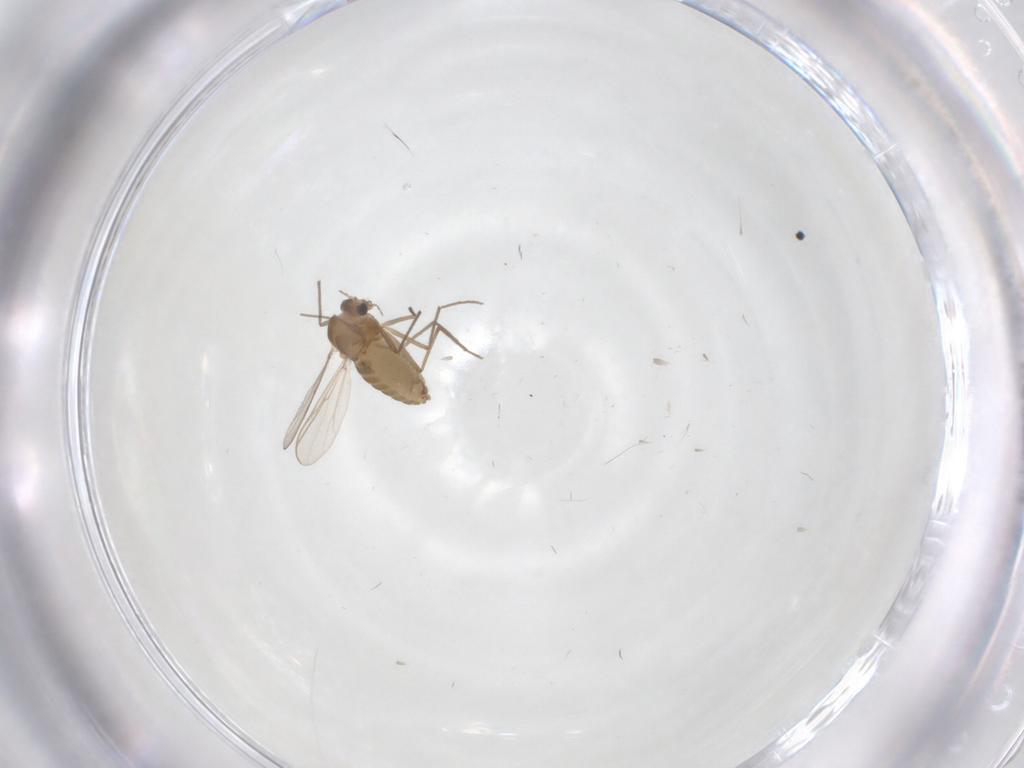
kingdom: Animalia
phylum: Arthropoda
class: Insecta
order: Diptera
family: Chironomidae
